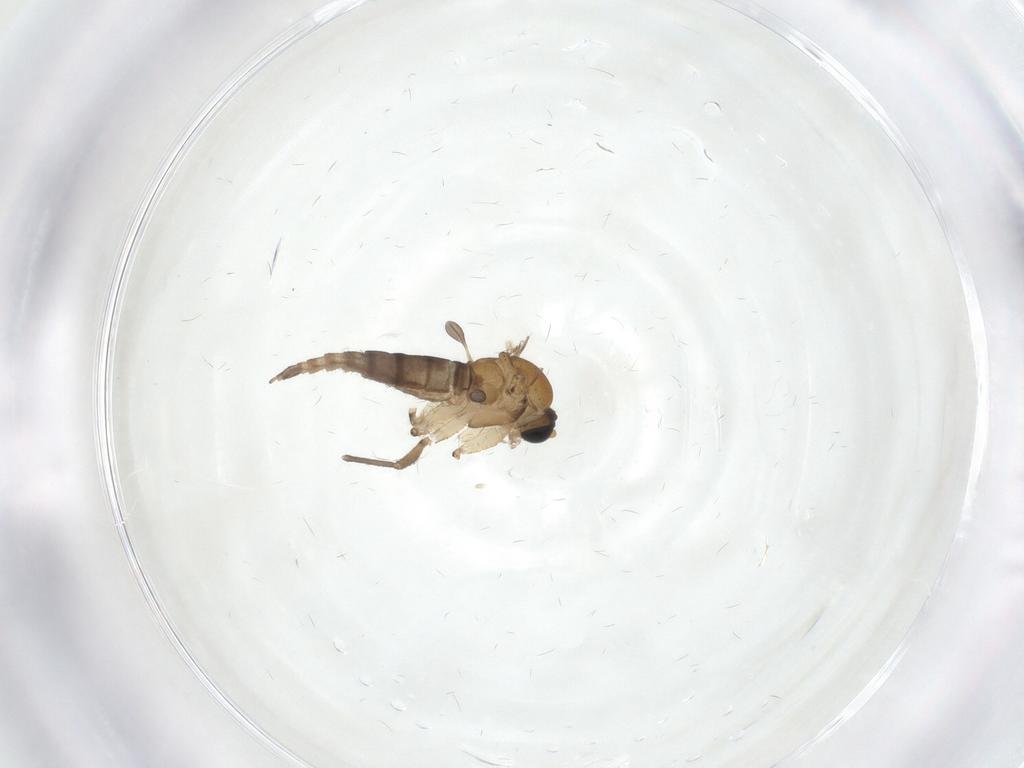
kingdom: Animalia
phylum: Arthropoda
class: Insecta
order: Diptera
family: Sciaridae
